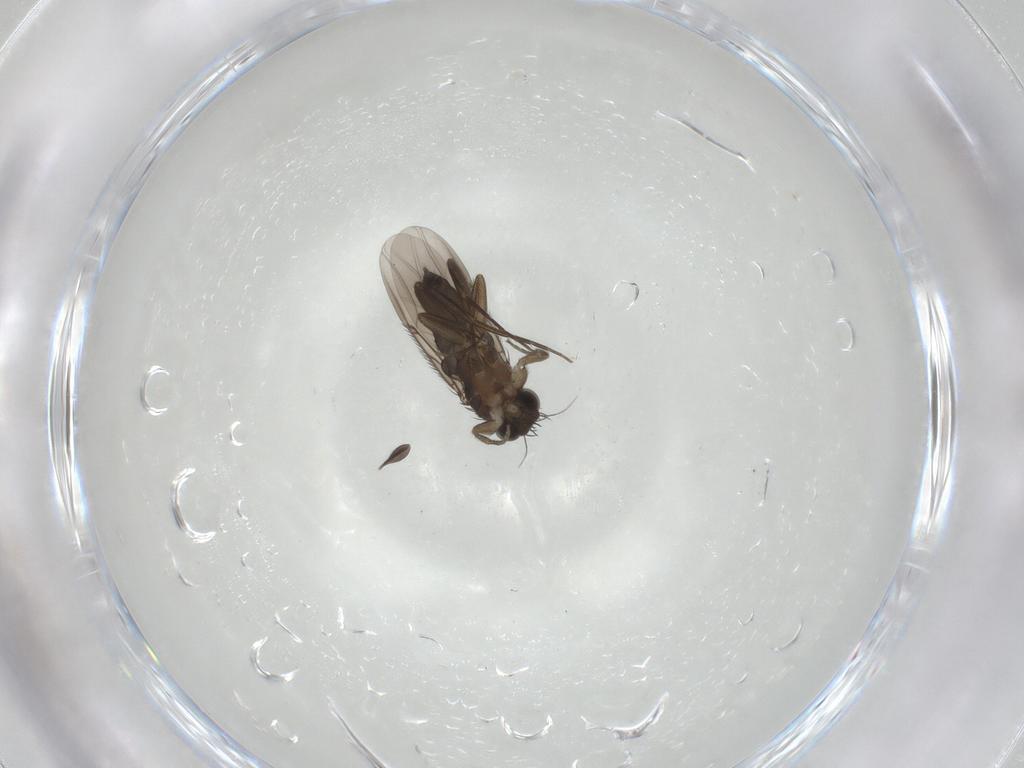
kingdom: Animalia
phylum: Arthropoda
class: Insecta
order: Diptera
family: Phoridae
